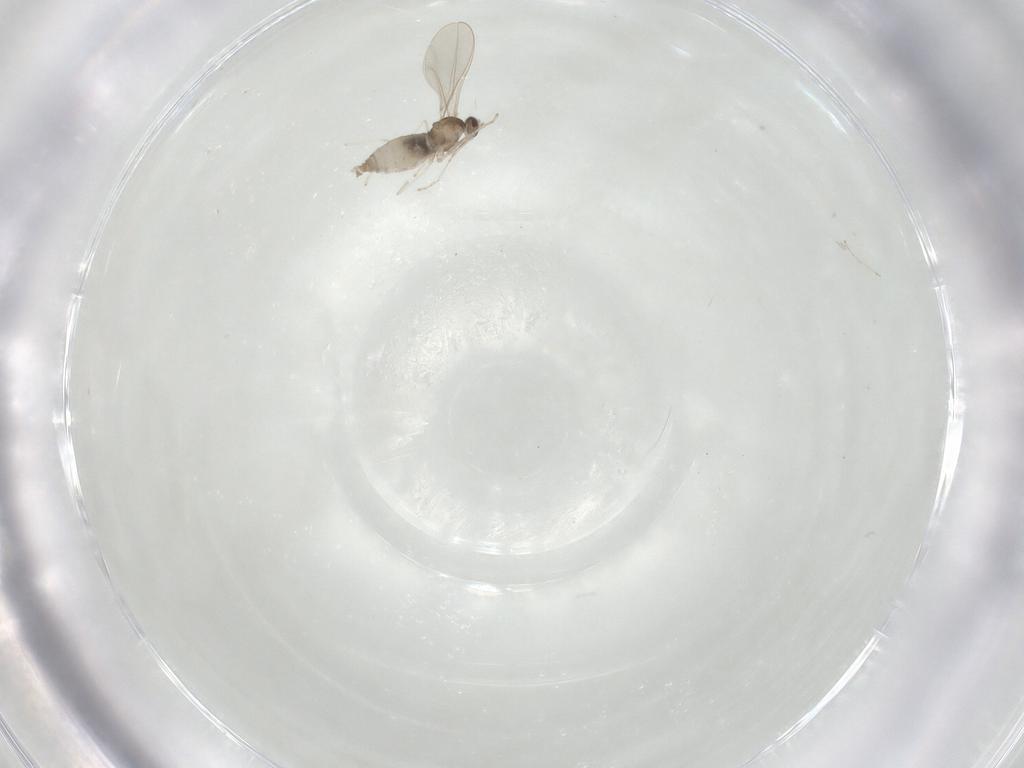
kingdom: Animalia
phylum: Arthropoda
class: Insecta
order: Diptera
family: Cecidomyiidae
